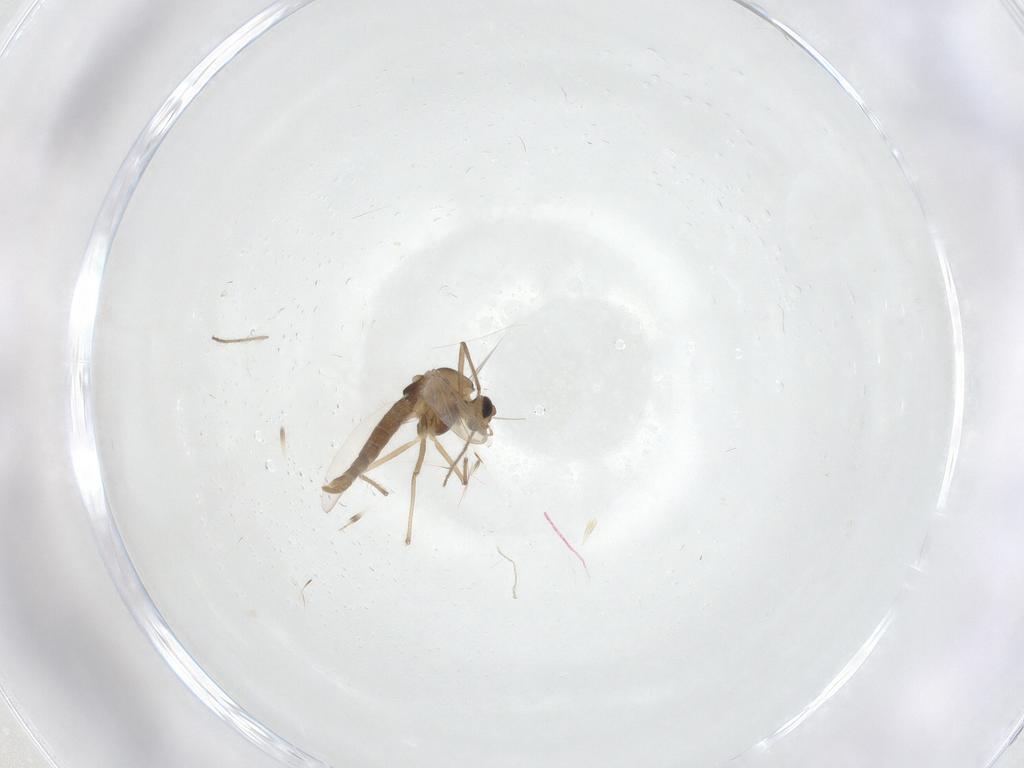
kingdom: Animalia
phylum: Arthropoda
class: Insecta
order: Diptera
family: Chironomidae
